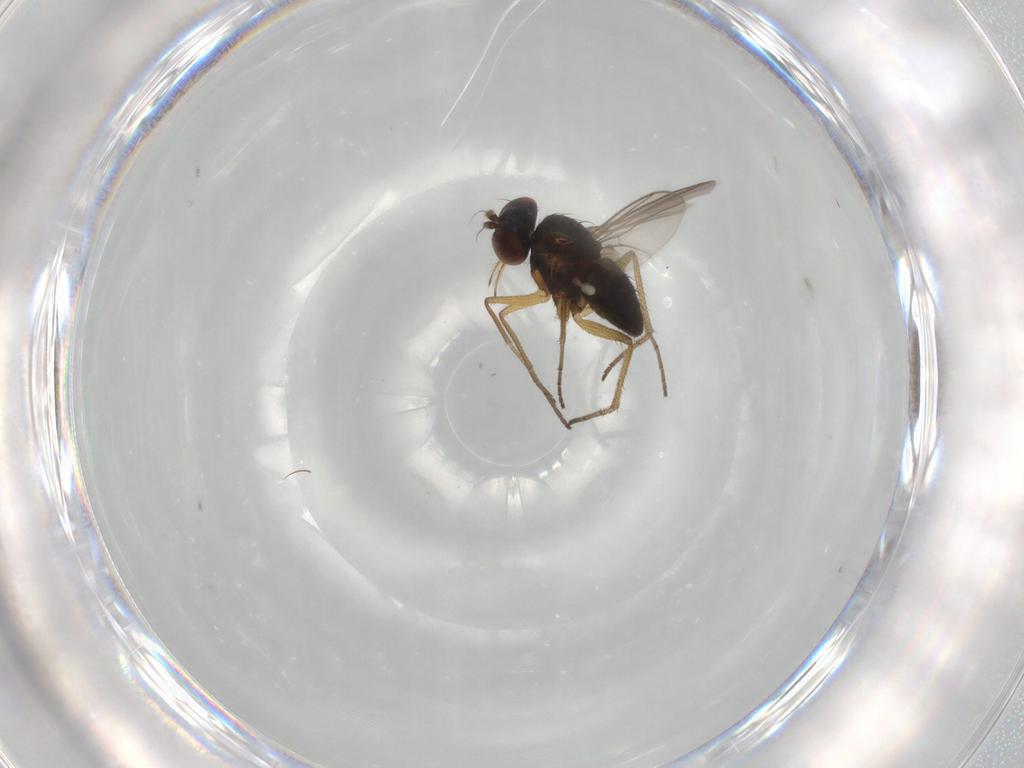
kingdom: Animalia
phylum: Arthropoda
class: Insecta
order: Diptera
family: Dolichopodidae
